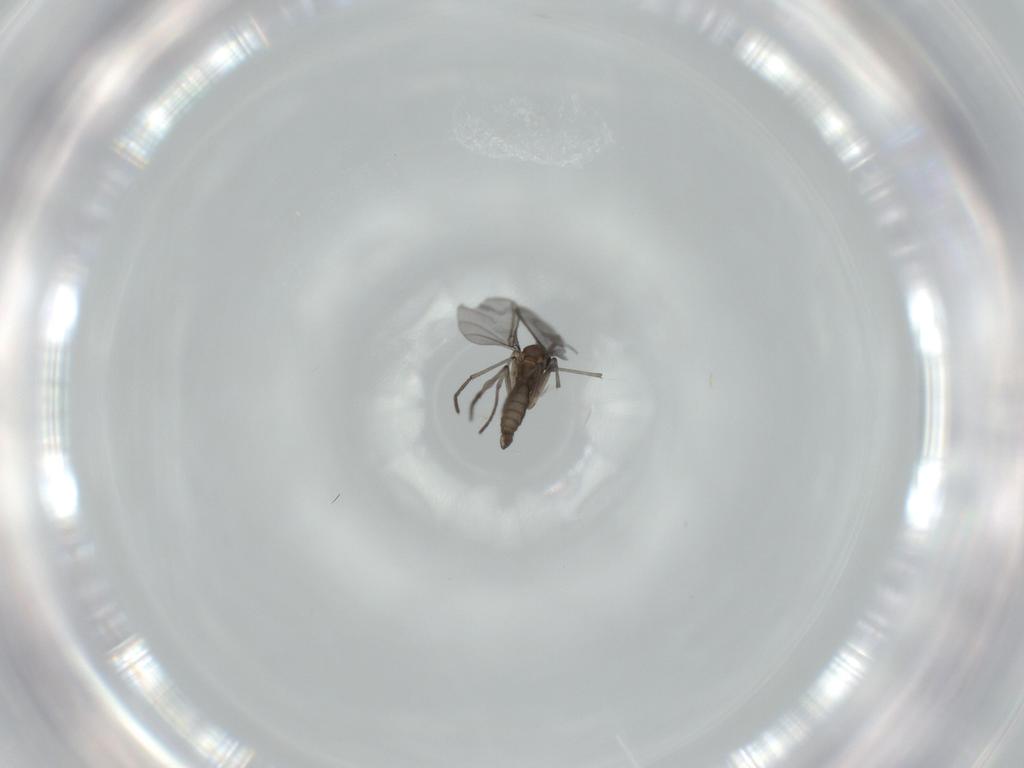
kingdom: Animalia
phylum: Arthropoda
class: Insecta
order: Diptera
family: Sciaridae
